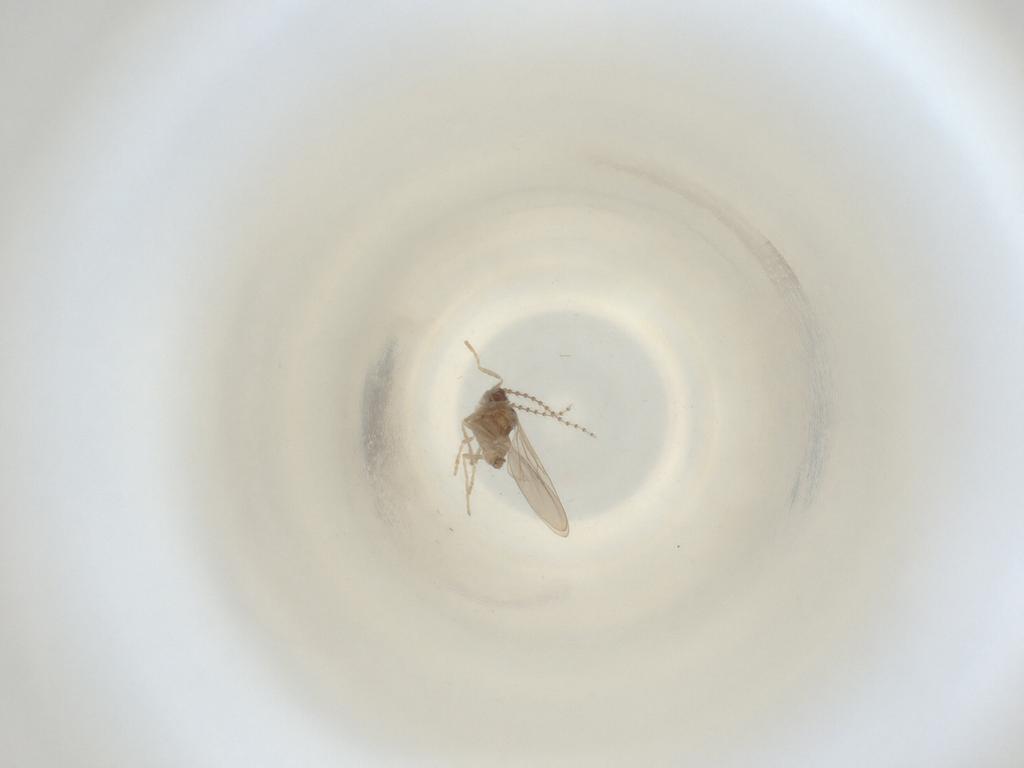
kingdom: Animalia
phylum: Arthropoda
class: Insecta
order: Diptera
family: Cecidomyiidae
